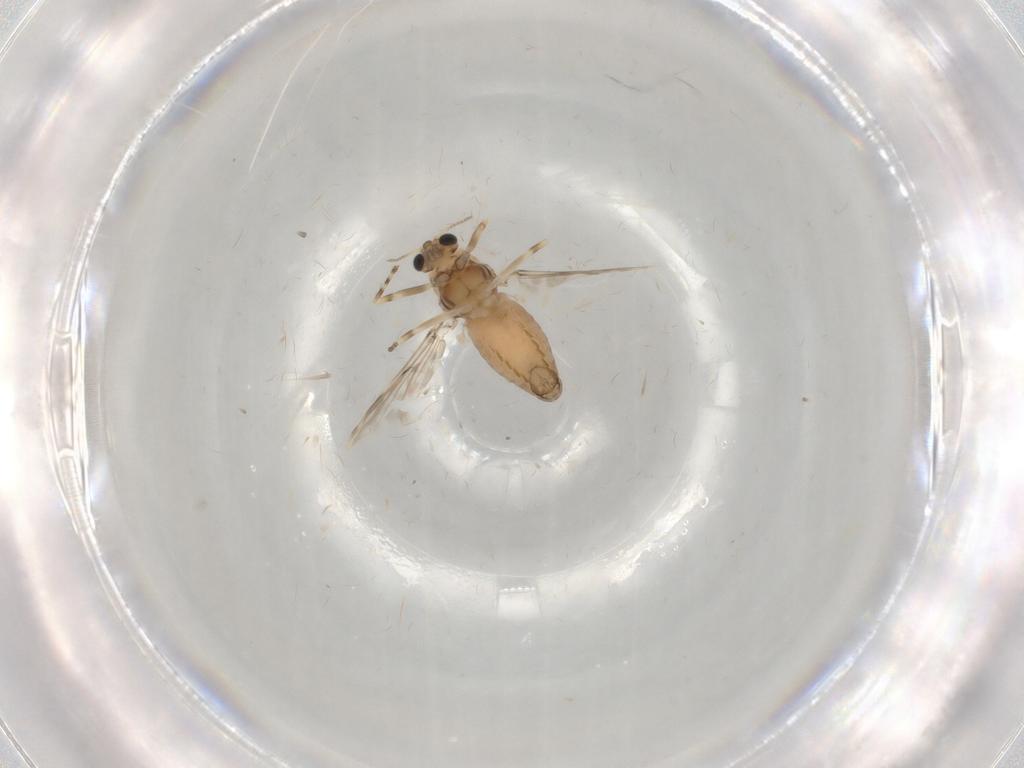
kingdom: Animalia
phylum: Arthropoda
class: Insecta
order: Diptera
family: Chironomidae
